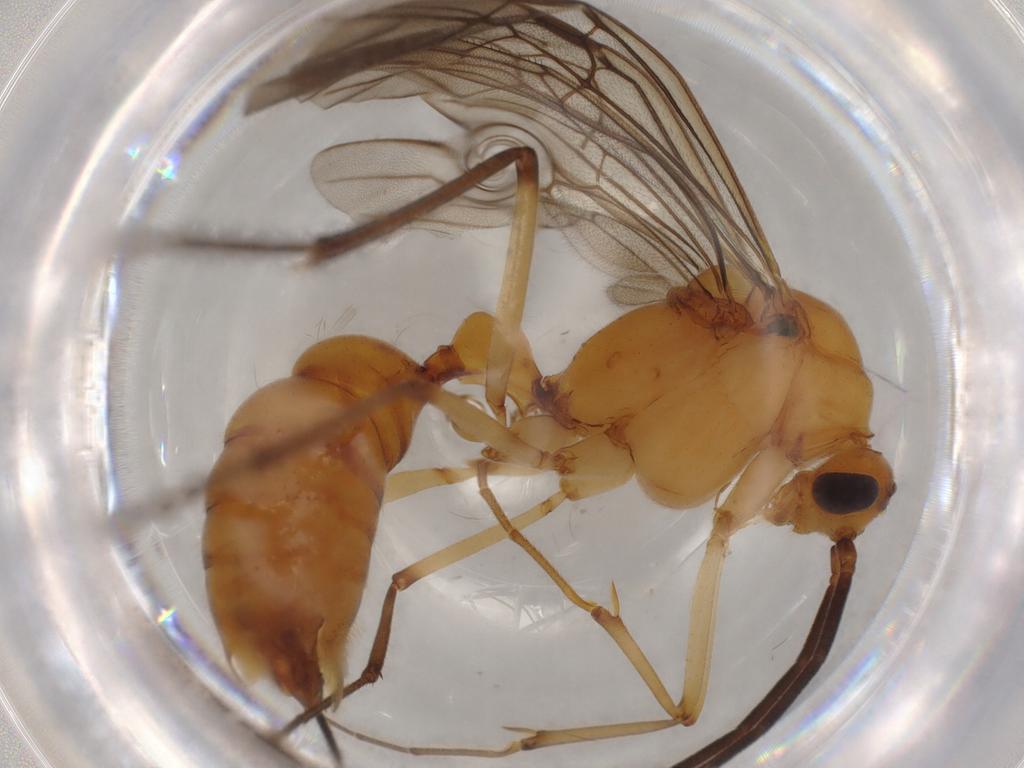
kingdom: Animalia
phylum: Arthropoda
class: Insecta
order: Hymenoptera
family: Formicidae
